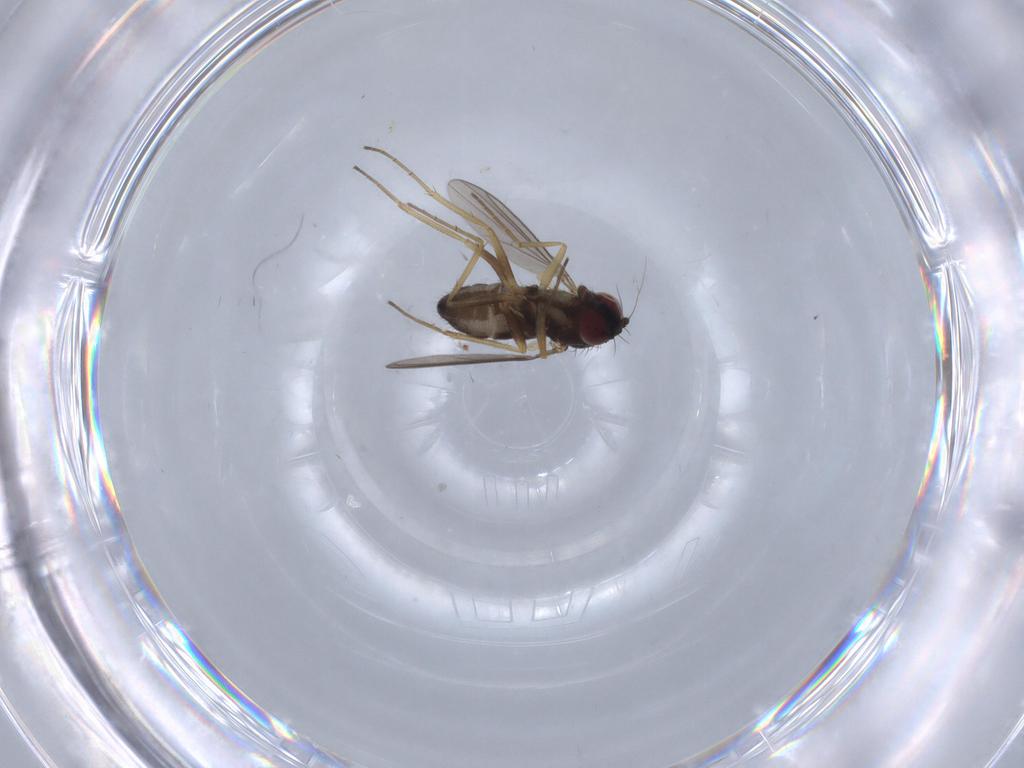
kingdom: Animalia
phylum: Arthropoda
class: Insecta
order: Diptera
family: Dolichopodidae
